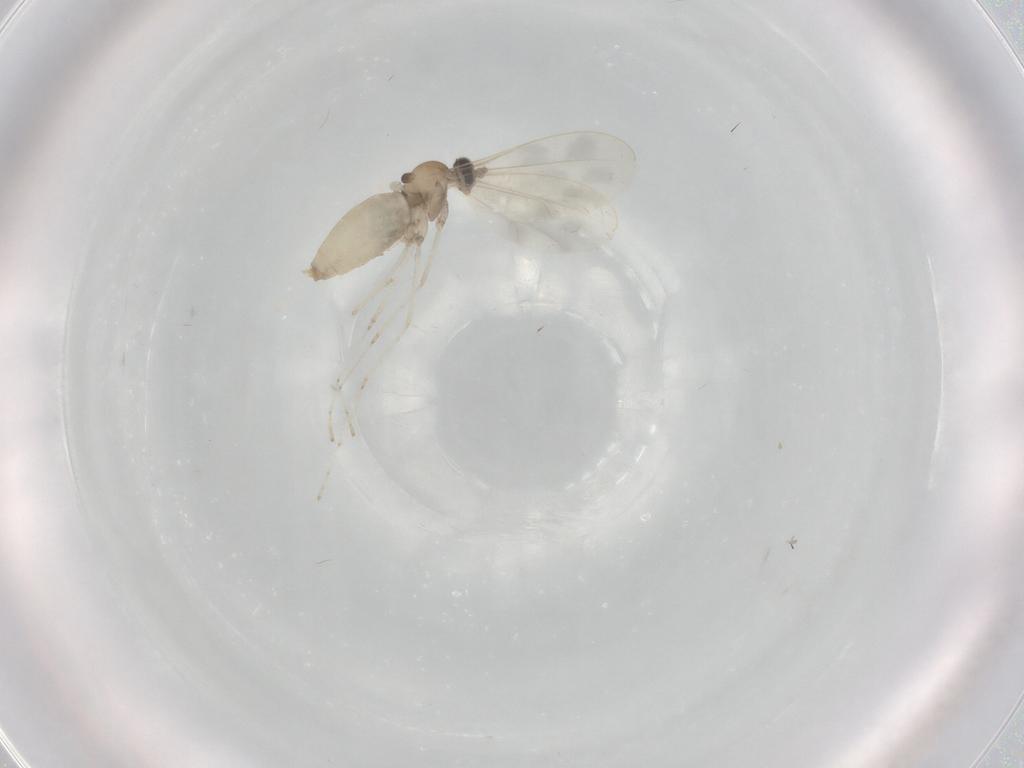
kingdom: Animalia
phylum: Arthropoda
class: Insecta
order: Diptera
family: Cecidomyiidae
